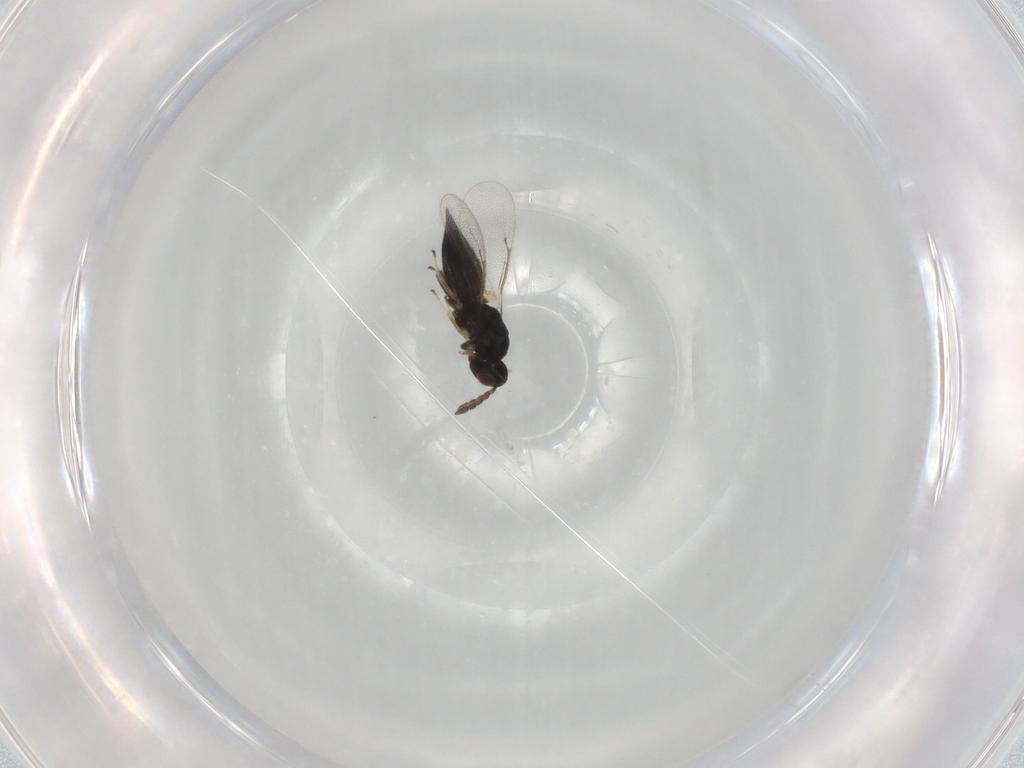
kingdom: Animalia
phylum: Arthropoda
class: Insecta
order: Hymenoptera
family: Eulophidae
